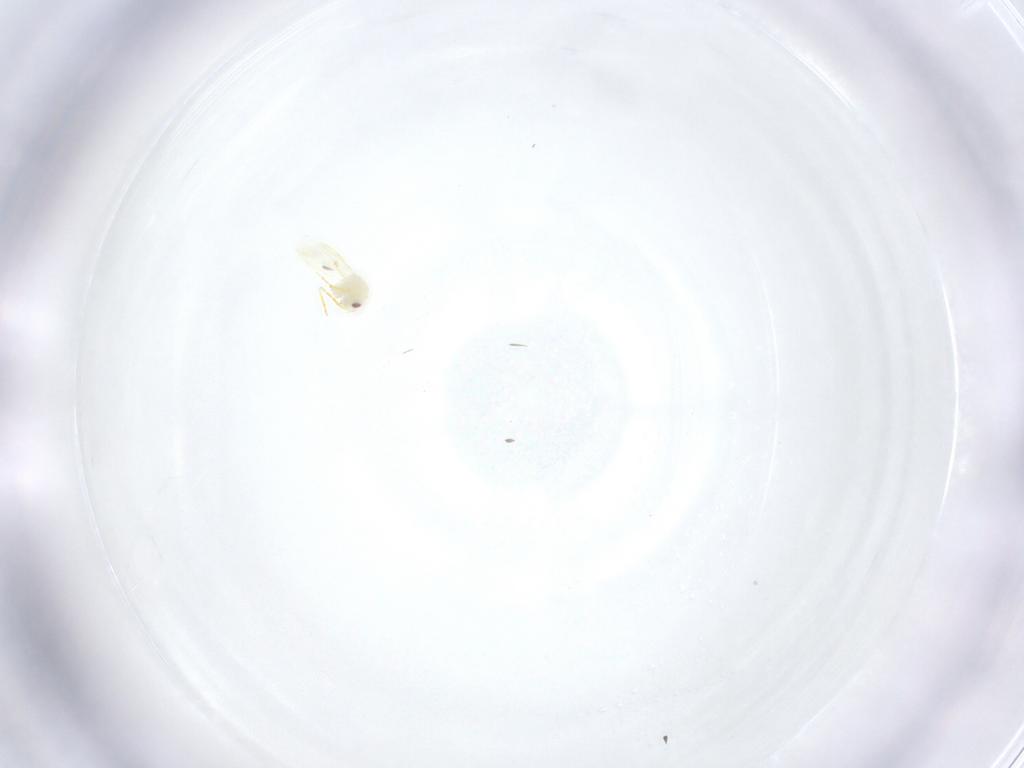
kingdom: Animalia
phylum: Arthropoda
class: Insecta
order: Hemiptera
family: Aleyrodidae
